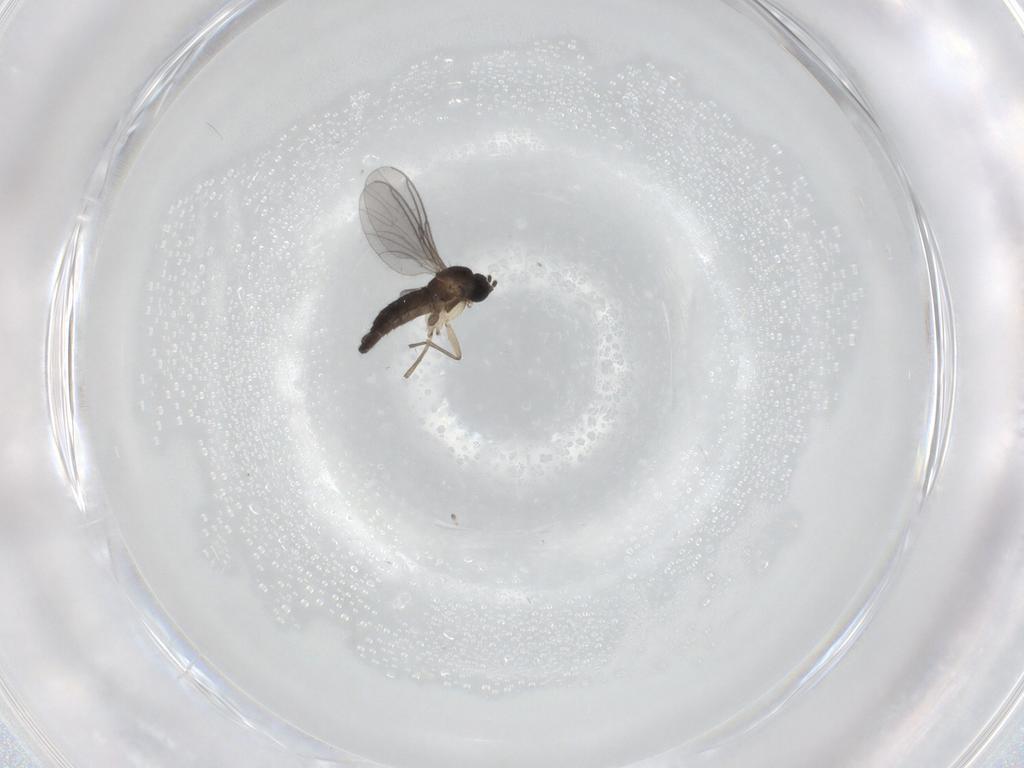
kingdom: Animalia
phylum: Arthropoda
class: Insecta
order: Diptera
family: Sciaridae
